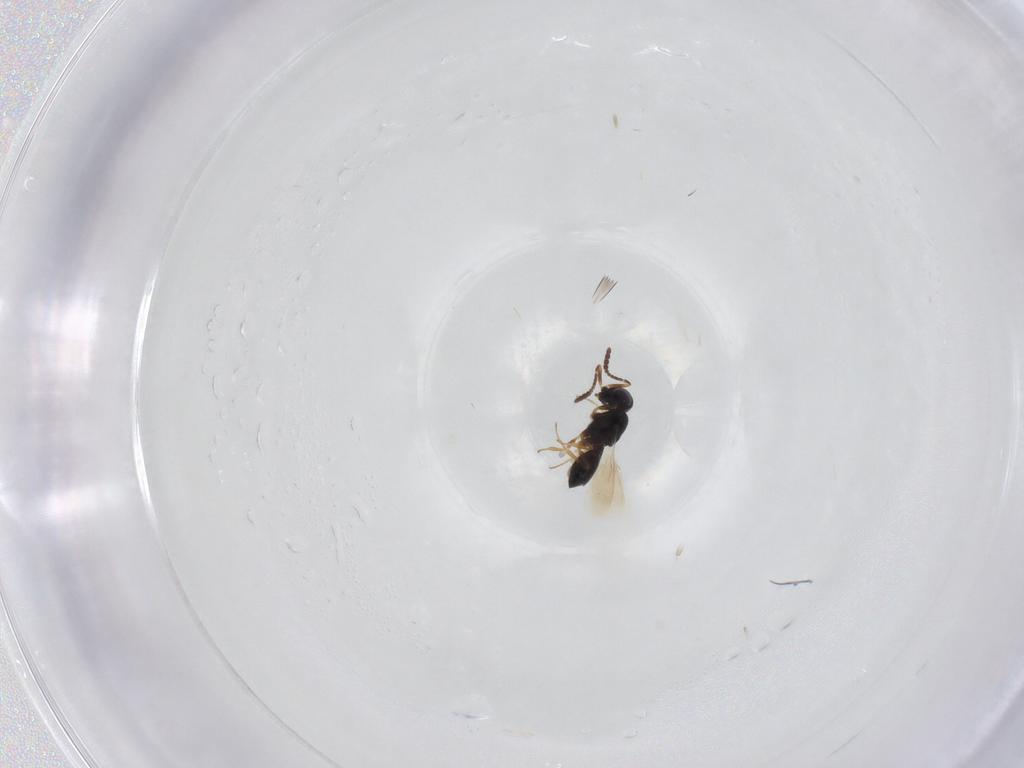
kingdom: Animalia
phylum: Arthropoda
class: Insecta
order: Hymenoptera
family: Scelionidae
